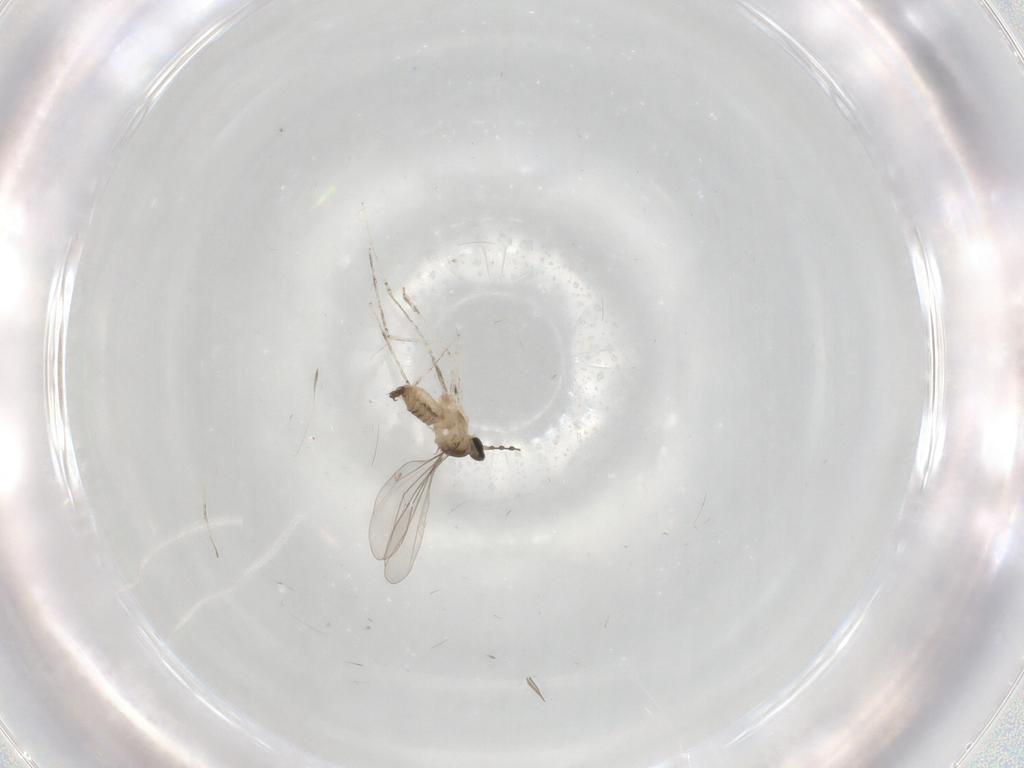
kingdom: Animalia
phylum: Arthropoda
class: Insecta
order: Diptera
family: Cecidomyiidae
